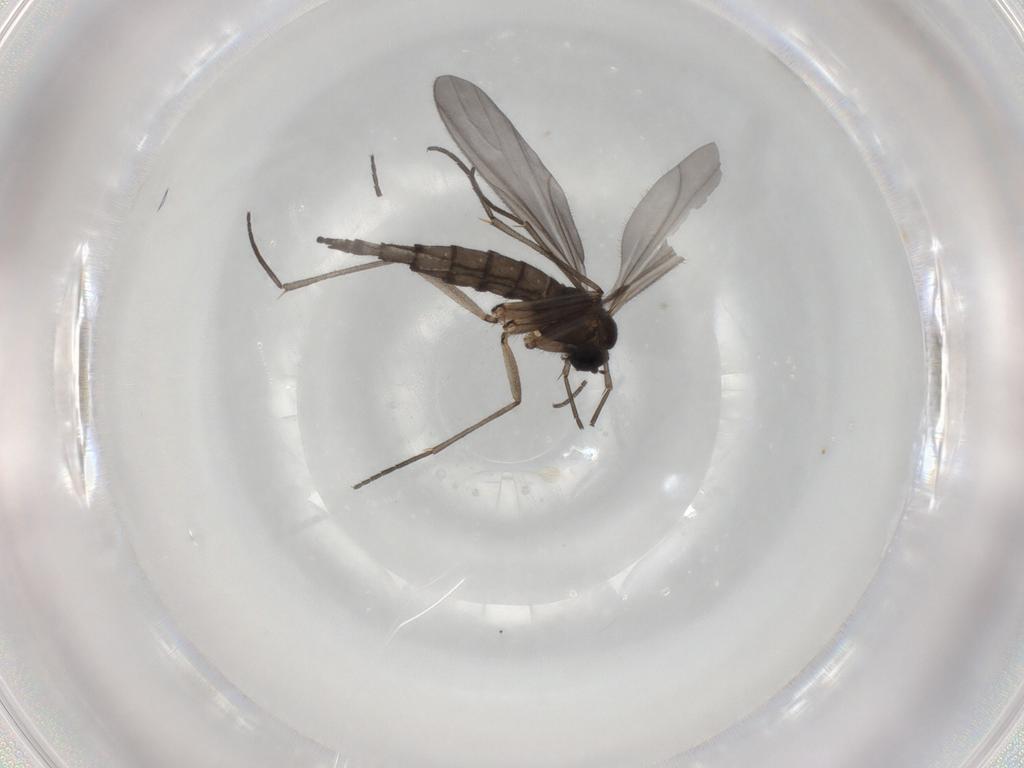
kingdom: Animalia
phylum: Arthropoda
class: Insecta
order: Diptera
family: Sciaridae
